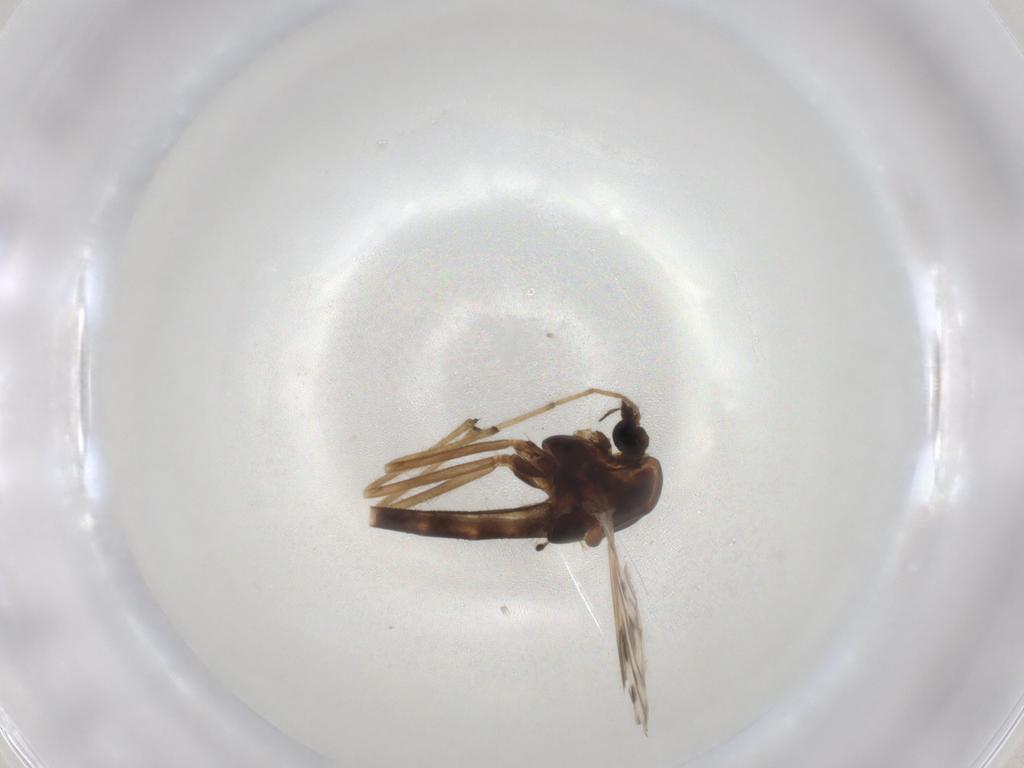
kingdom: Animalia
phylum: Arthropoda
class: Insecta
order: Diptera
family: Chironomidae
